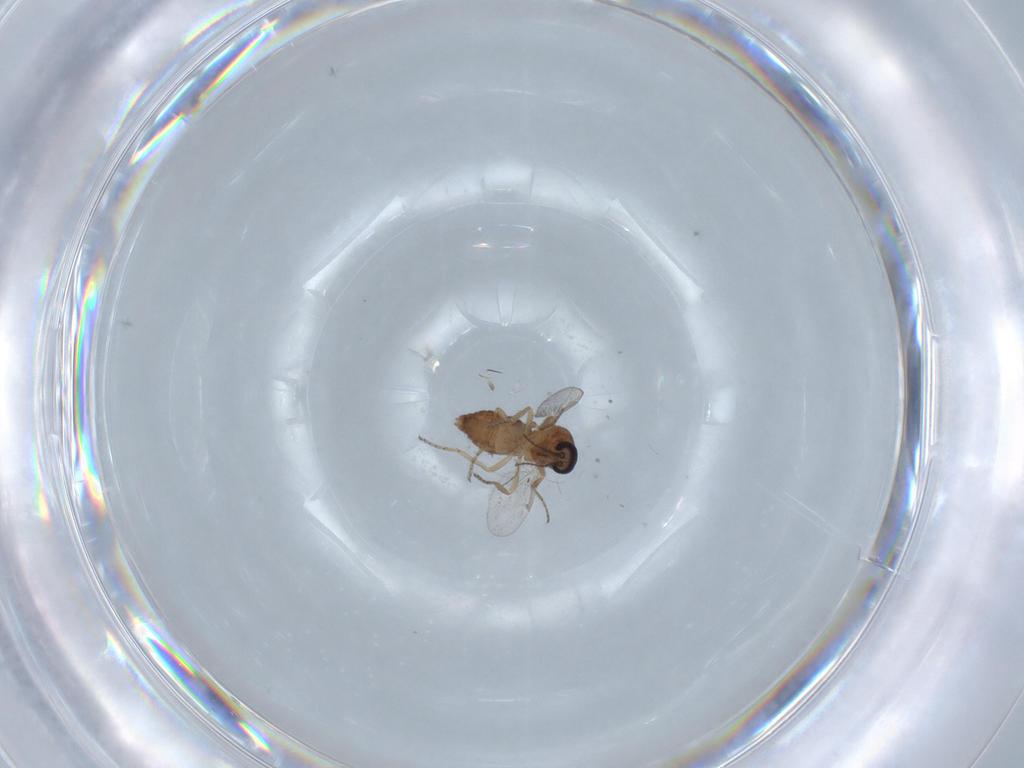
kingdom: Animalia
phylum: Arthropoda
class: Insecta
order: Diptera
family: Ceratopogonidae
